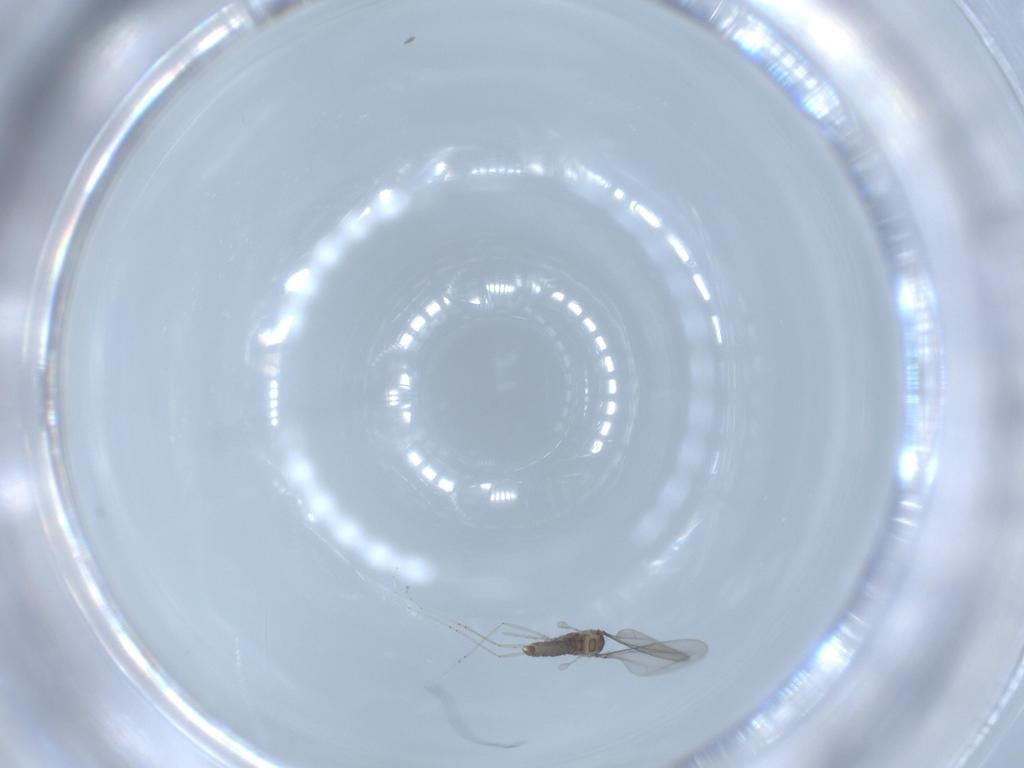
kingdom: Animalia
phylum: Arthropoda
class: Insecta
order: Diptera
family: Cecidomyiidae
